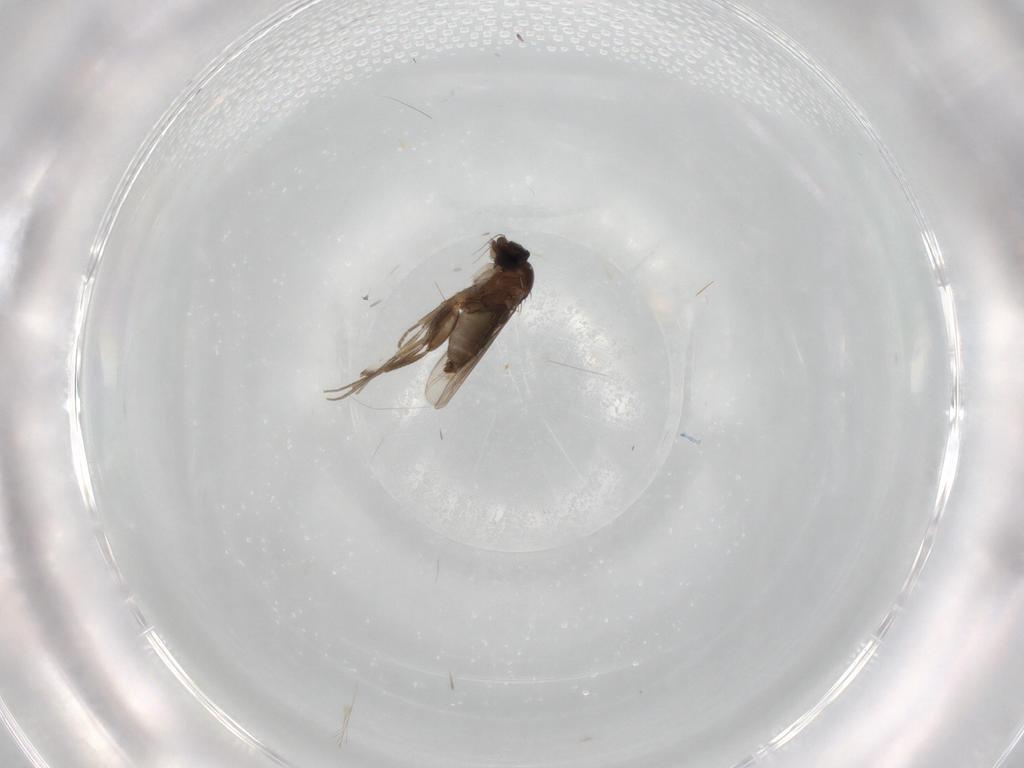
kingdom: Animalia
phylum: Arthropoda
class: Insecta
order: Diptera
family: Phoridae
